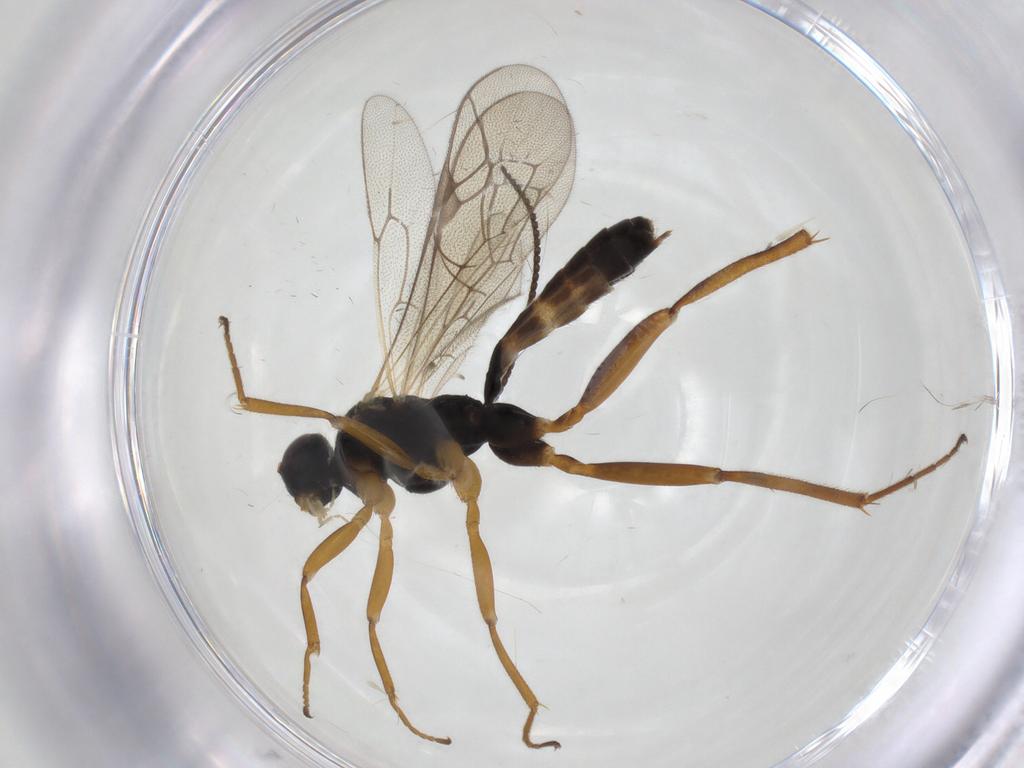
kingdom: Animalia
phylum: Arthropoda
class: Insecta
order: Hymenoptera
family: Ichneumonidae
